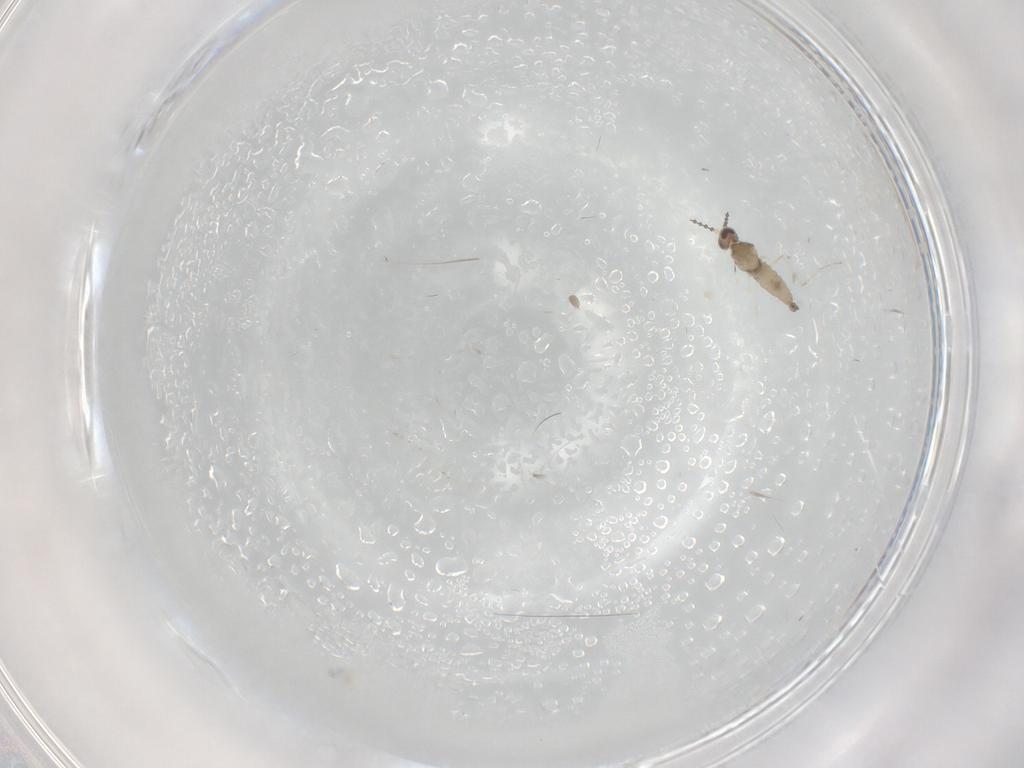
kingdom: Animalia
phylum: Arthropoda
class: Insecta
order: Diptera
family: Cecidomyiidae
